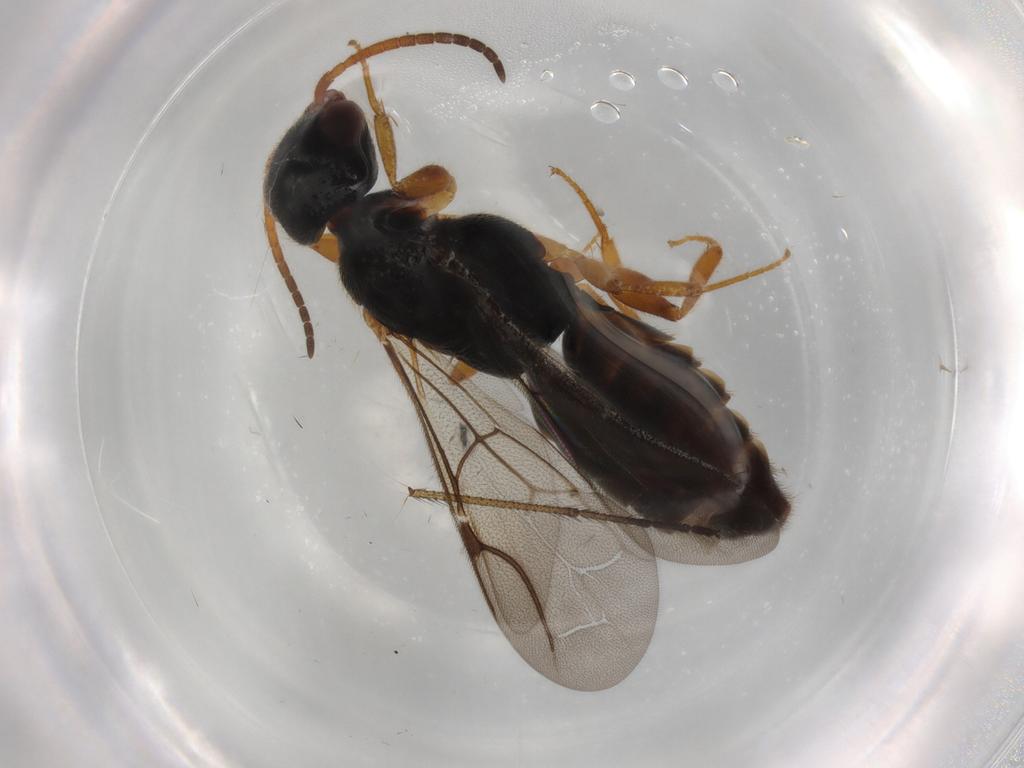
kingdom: Animalia
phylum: Arthropoda
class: Insecta
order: Hymenoptera
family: Bethylidae
